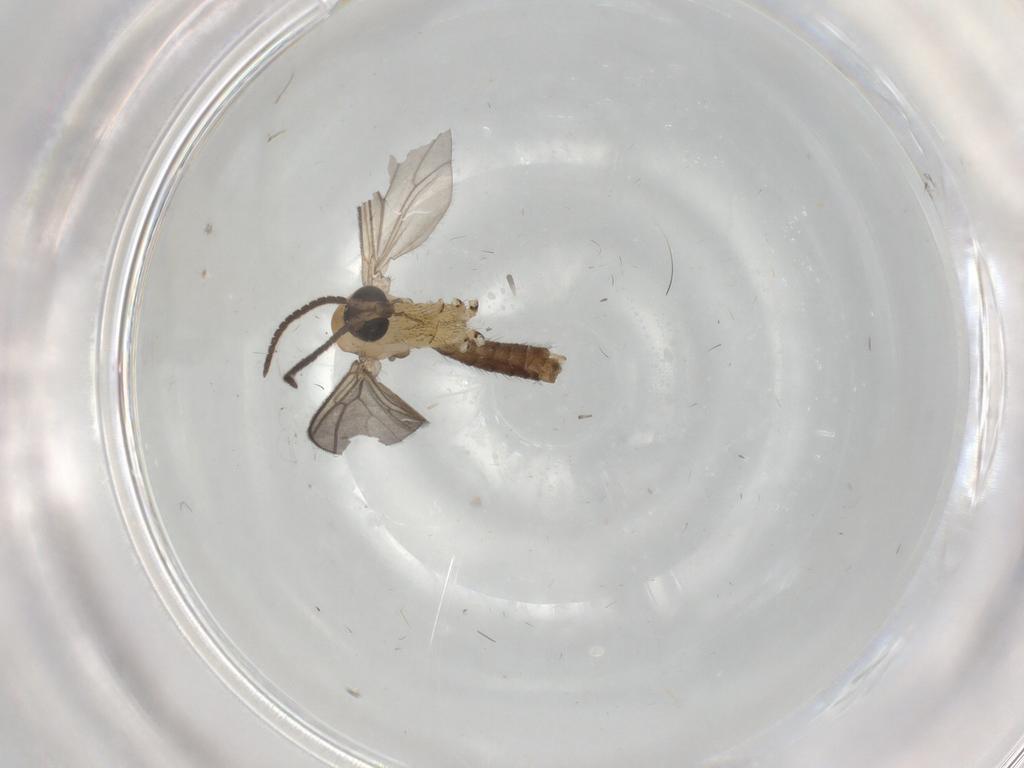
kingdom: Animalia
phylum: Arthropoda
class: Insecta
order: Diptera
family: Mycetophilidae
